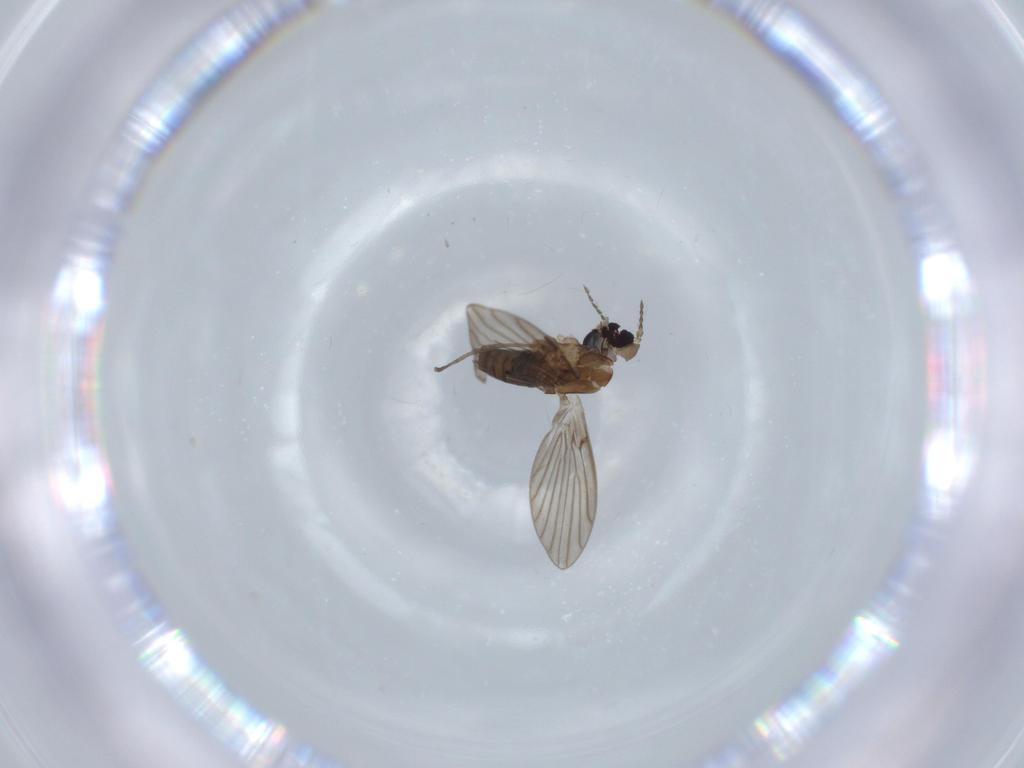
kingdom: Animalia
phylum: Arthropoda
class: Insecta
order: Diptera
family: Psychodidae
